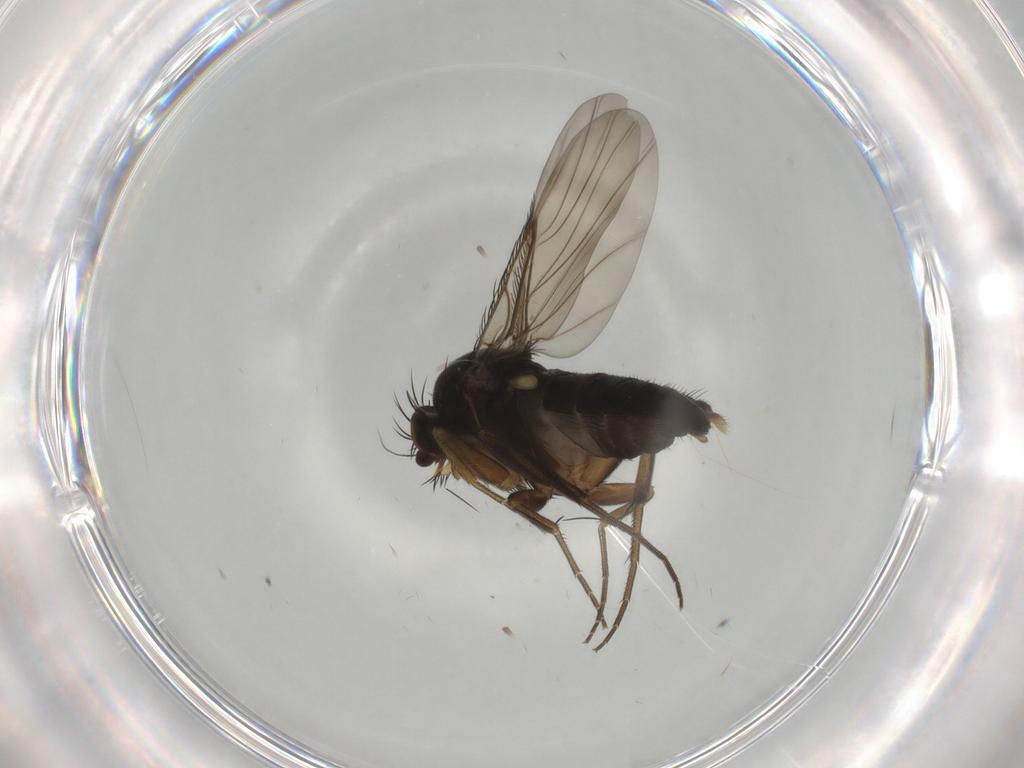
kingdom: Animalia
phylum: Arthropoda
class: Insecta
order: Diptera
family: Phoridae
